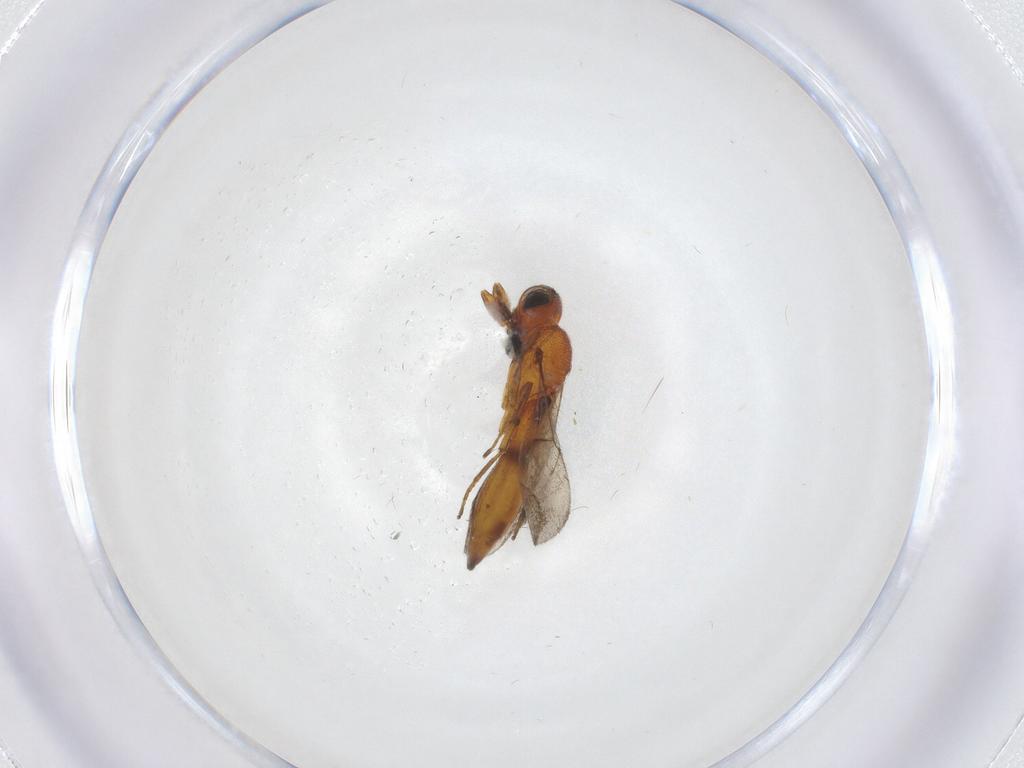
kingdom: Animalia
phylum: Arthropoda
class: Insecta
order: Hymenoptera
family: Scelionidae
